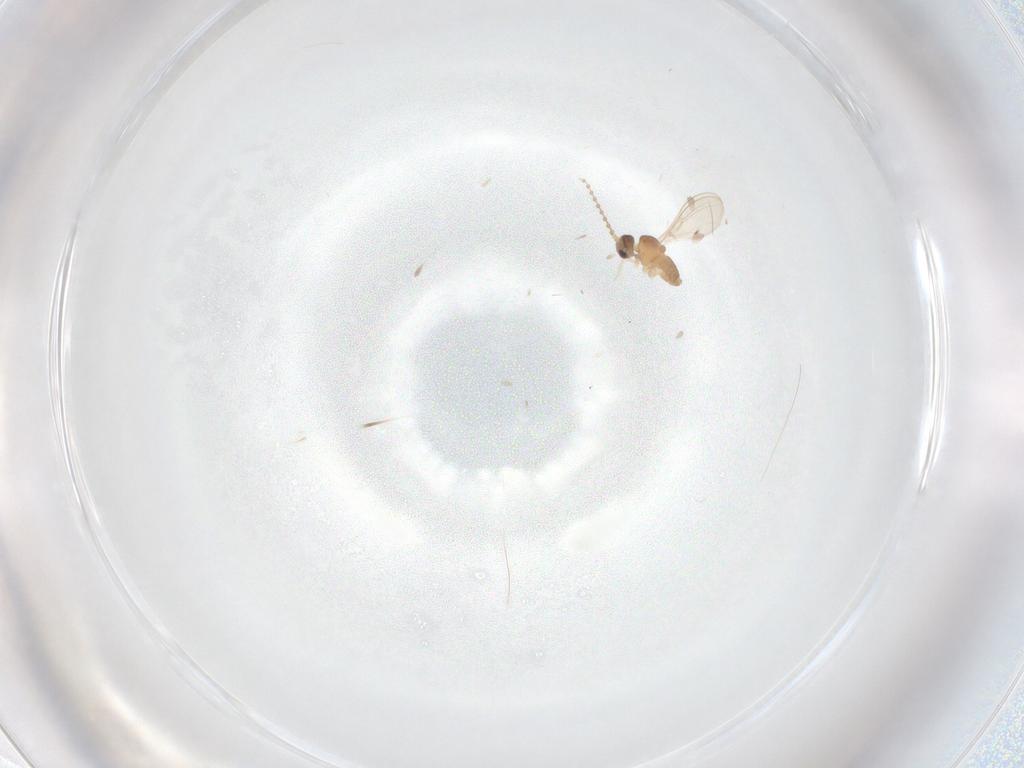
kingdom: Animalia
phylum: Arthropoda
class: Insecta
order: Diptera
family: Cecidomyiidae
